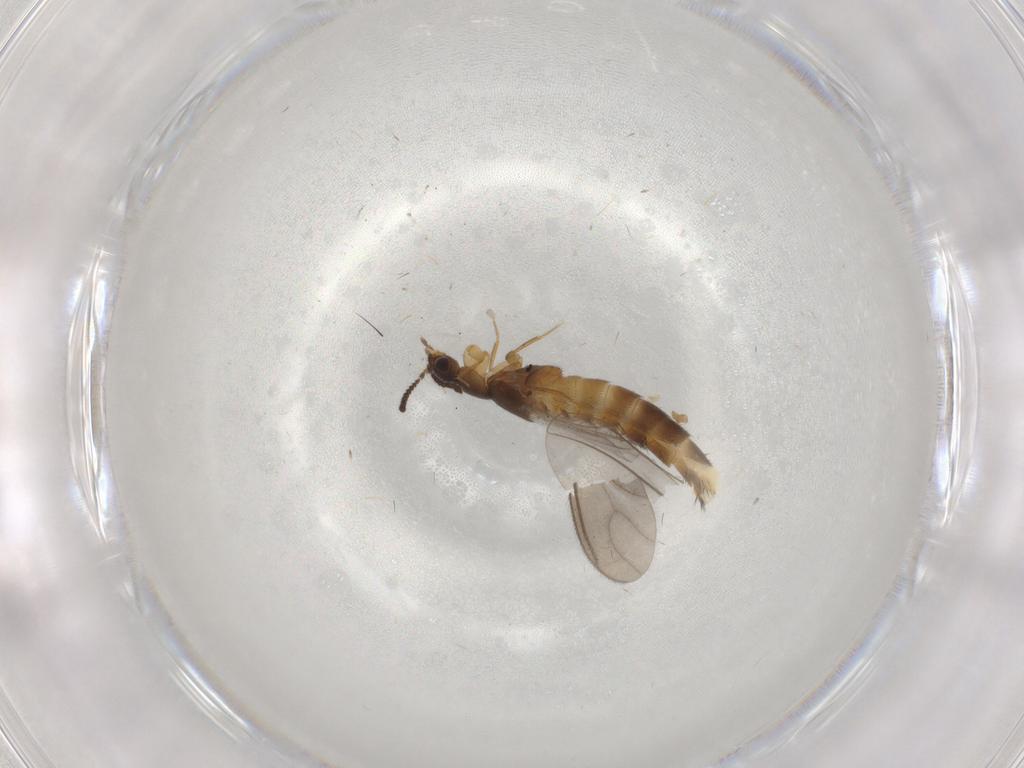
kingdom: Animalia
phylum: Arthropoda
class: Insecta
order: Coleoptera
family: Staphylinidae
